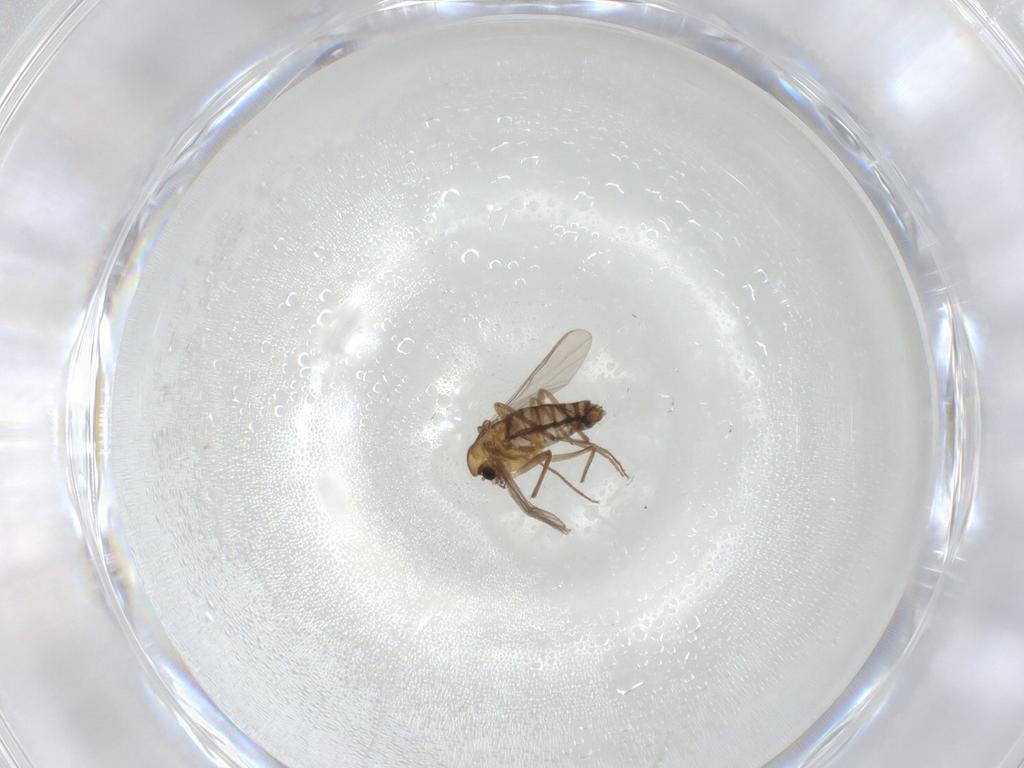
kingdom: Animalia
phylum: Arthropoda
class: Insecta
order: Diptera
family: Chironomidae
